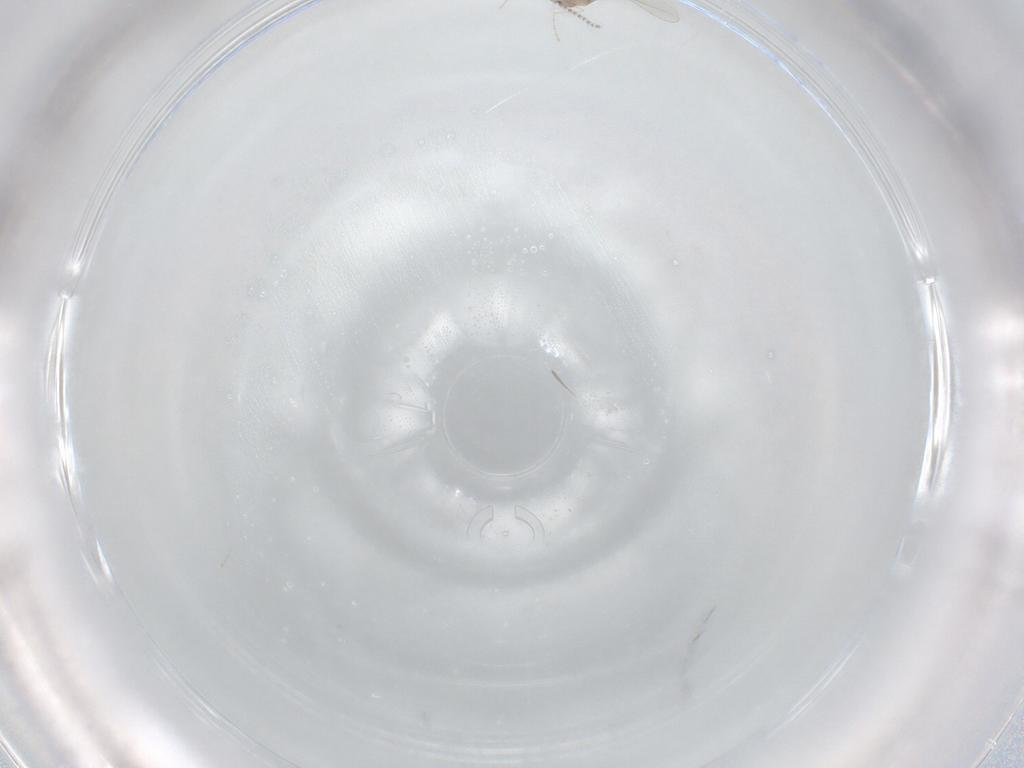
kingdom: Animalia
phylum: Arthropoda
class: Insecta
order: Diptera
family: Cecidomyiidae
